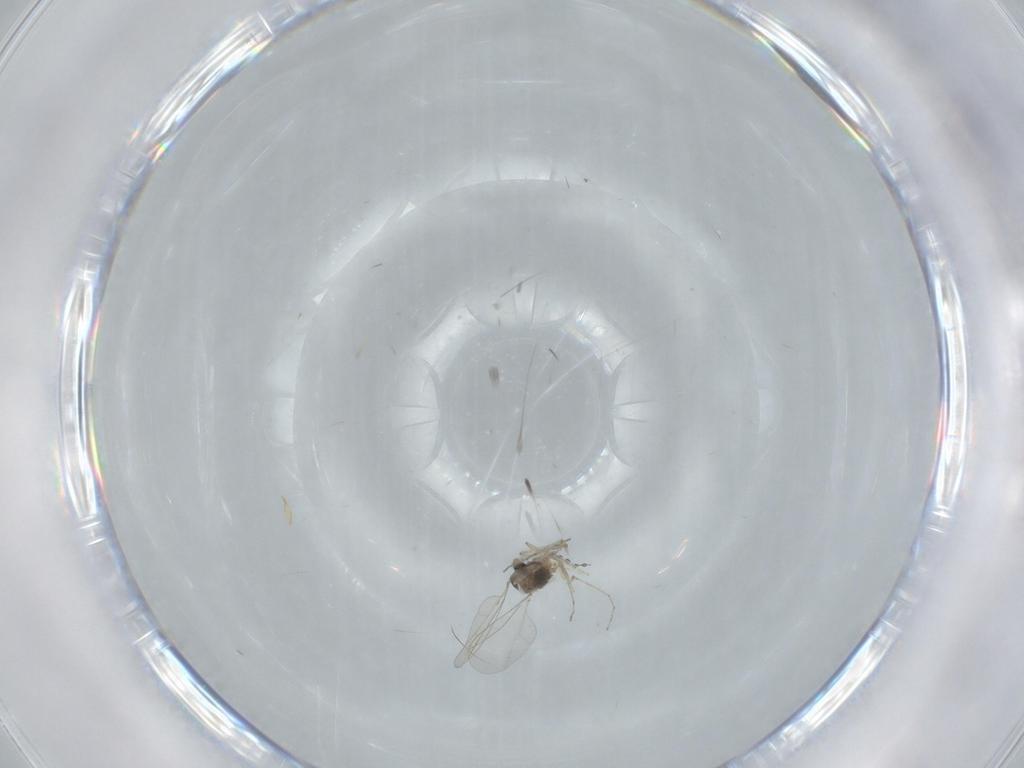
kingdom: Animalia
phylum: Arthropoda
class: Insecta
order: Diptera
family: Cecidomyiidae
